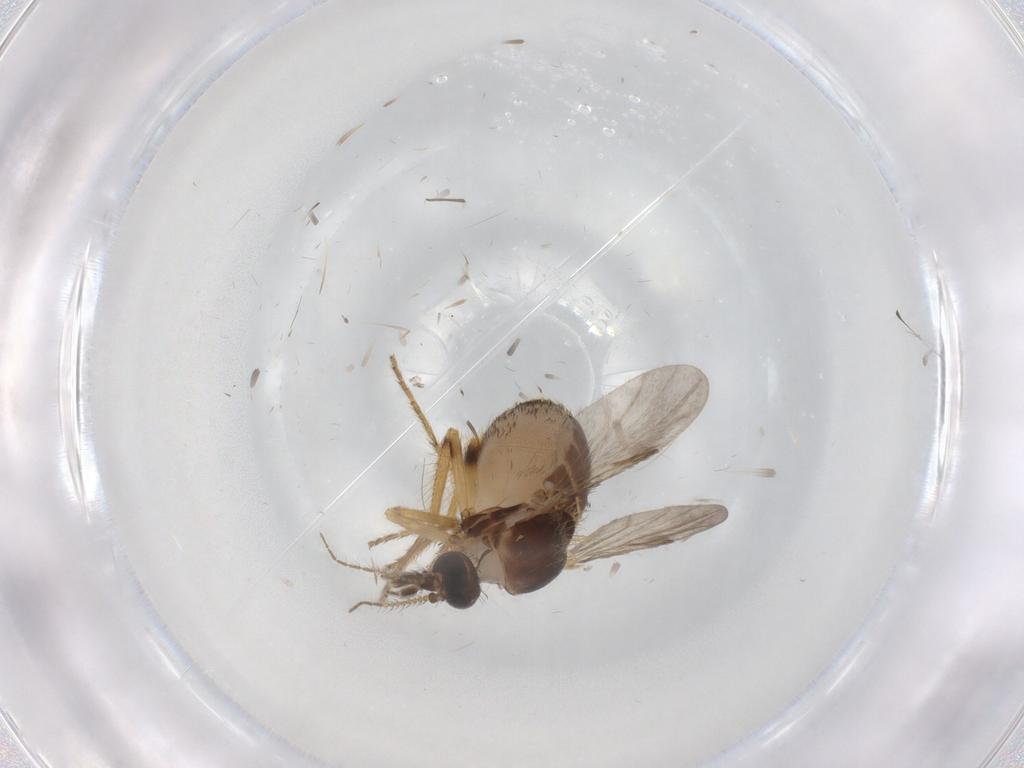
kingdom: Animalia
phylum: Arthropoda
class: Insecta
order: Diptera
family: Ceratopogonidae
